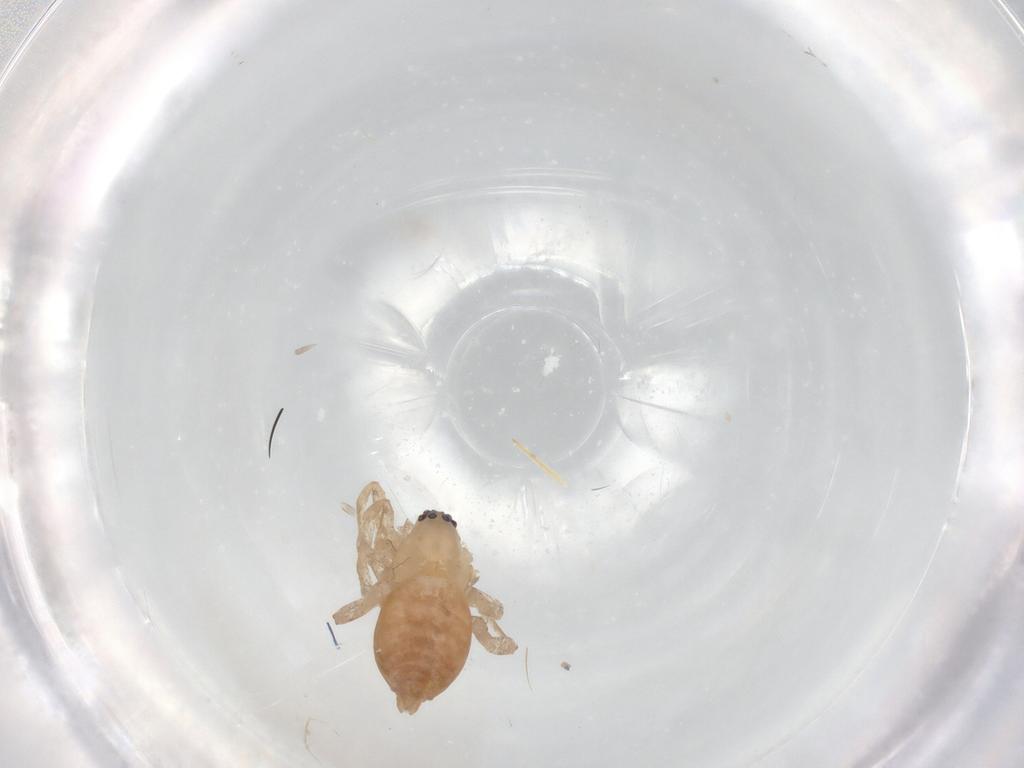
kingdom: Animalia
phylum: Arthropoda
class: Arachnida
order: Araneae
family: Anyphaenidae
